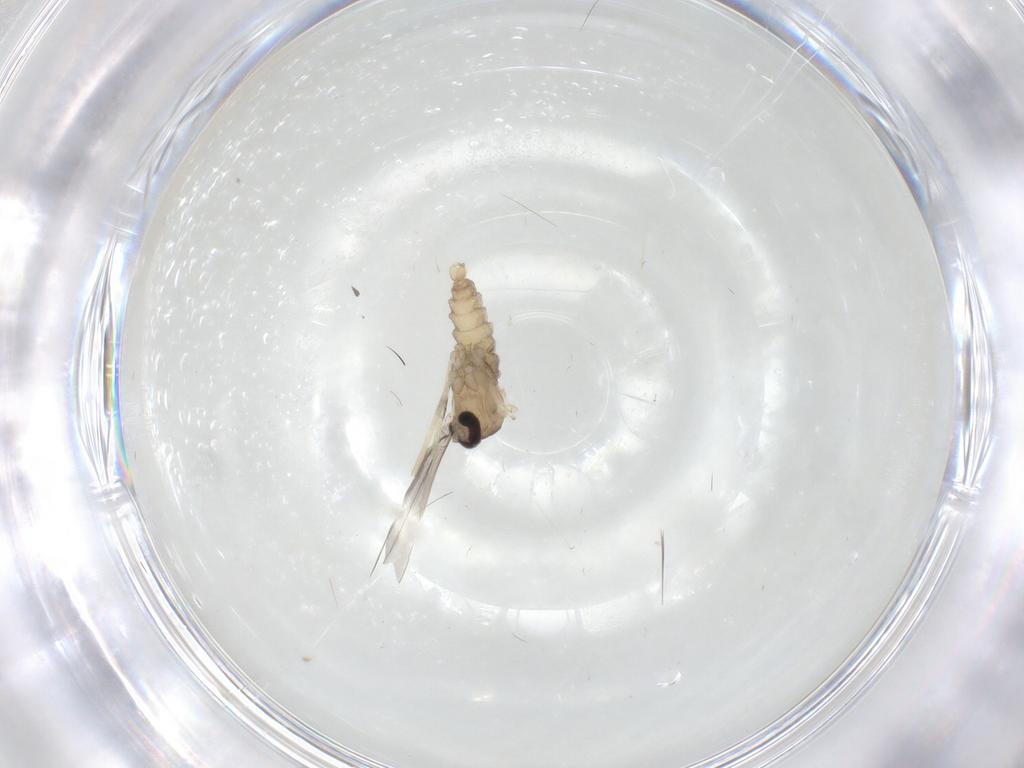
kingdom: Animalia
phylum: Arthropoda
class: Insecta
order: Diptera
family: Cecidomyiidae
